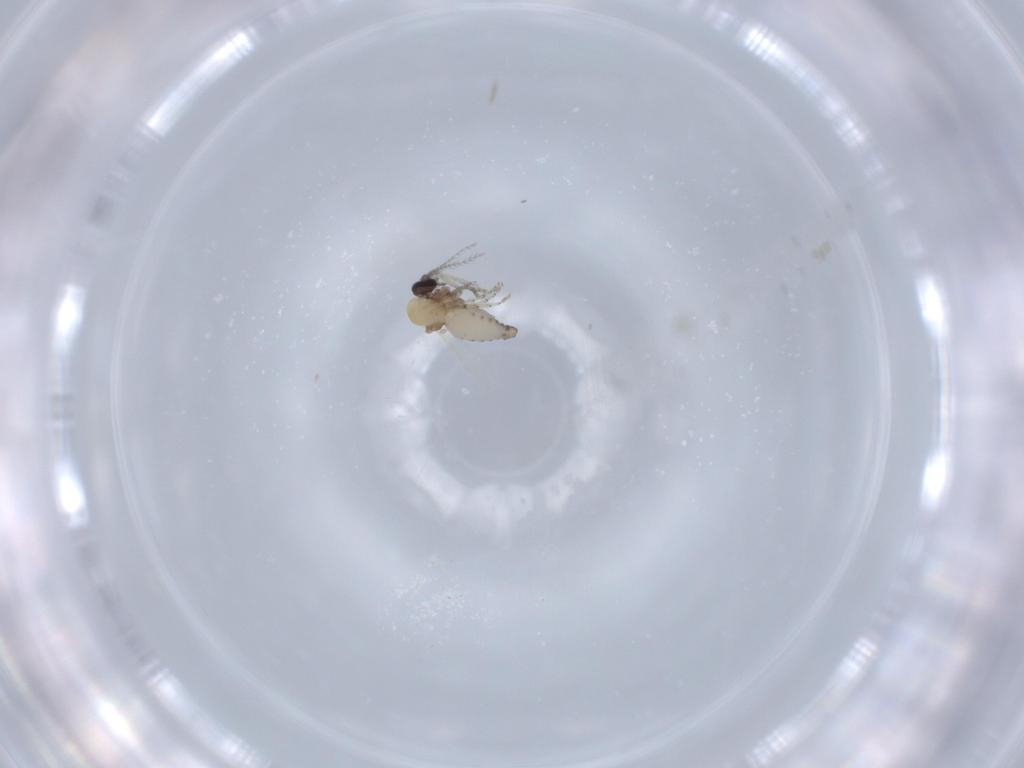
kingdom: Animalia
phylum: Arthropoda
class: Insecta
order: Diptera
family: Ceratopogonidae
